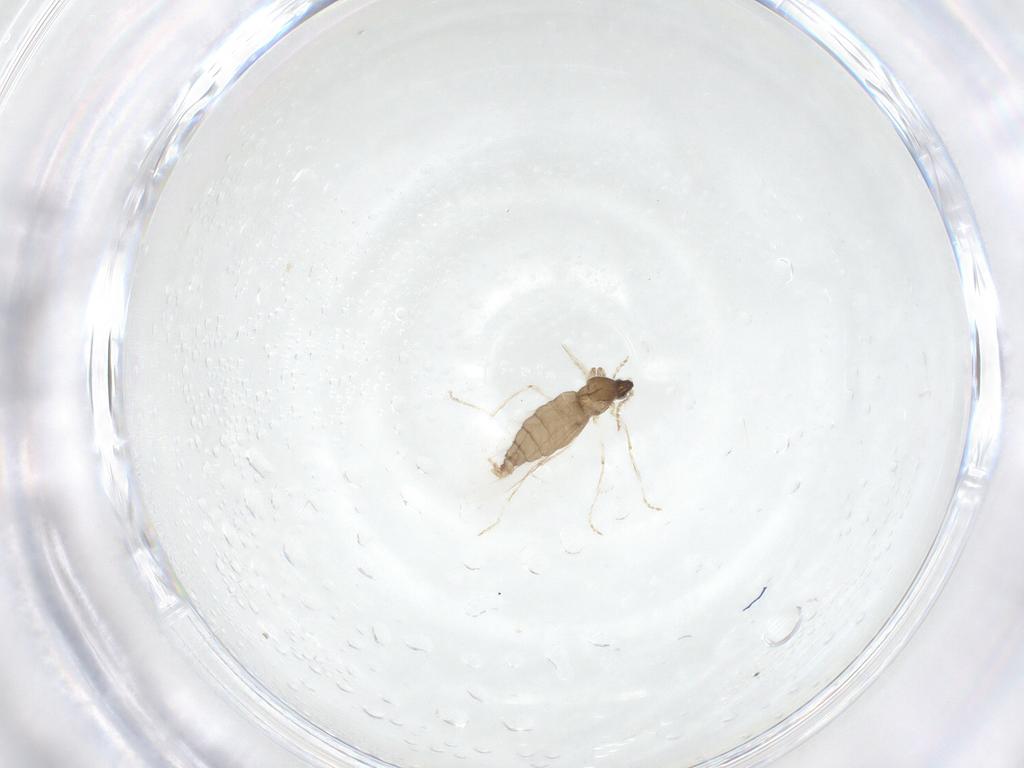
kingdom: Animalia
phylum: Arthropoda
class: Insecta
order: Diptera
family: Cecidomyiidae
